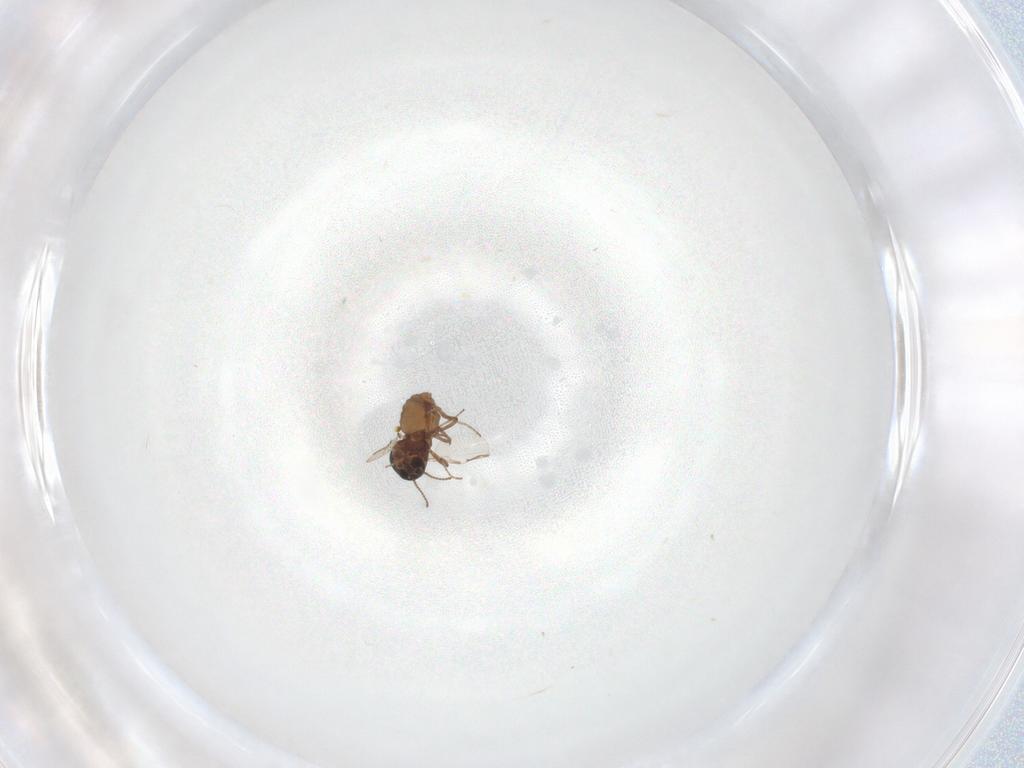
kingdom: Animalia
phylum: Arthropoda
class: Insecta
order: Diptera
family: Ceratopogonidae
